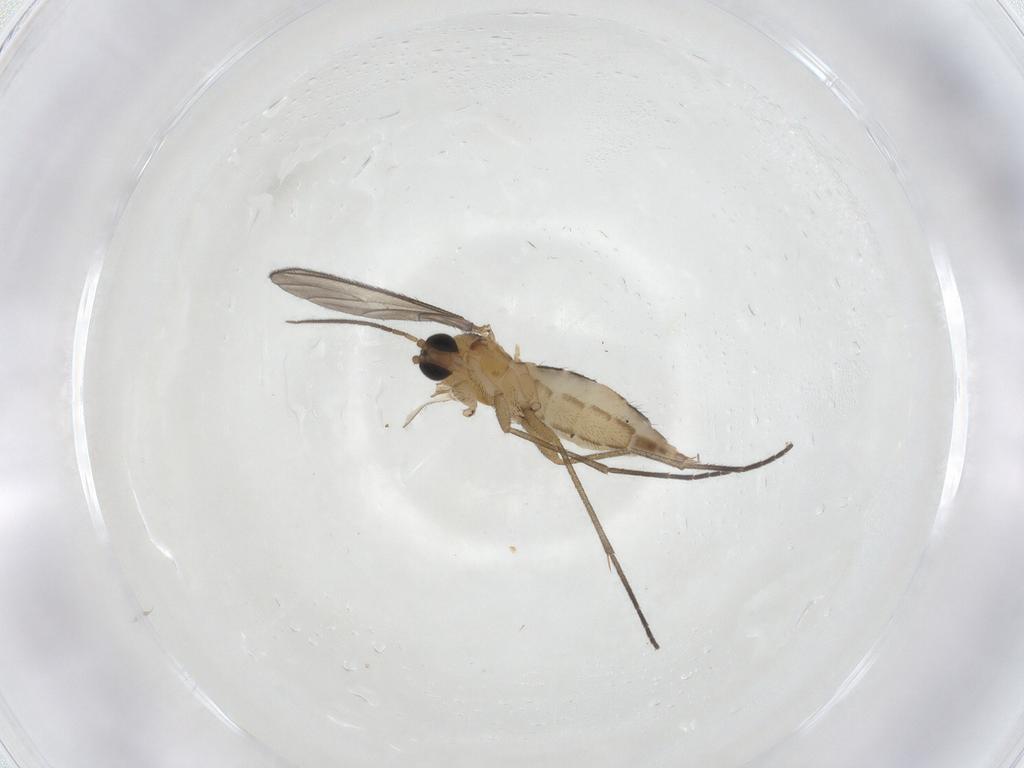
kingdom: Animalia
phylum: Arthropoda
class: Insecta
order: Diptera
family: Sciaridae
